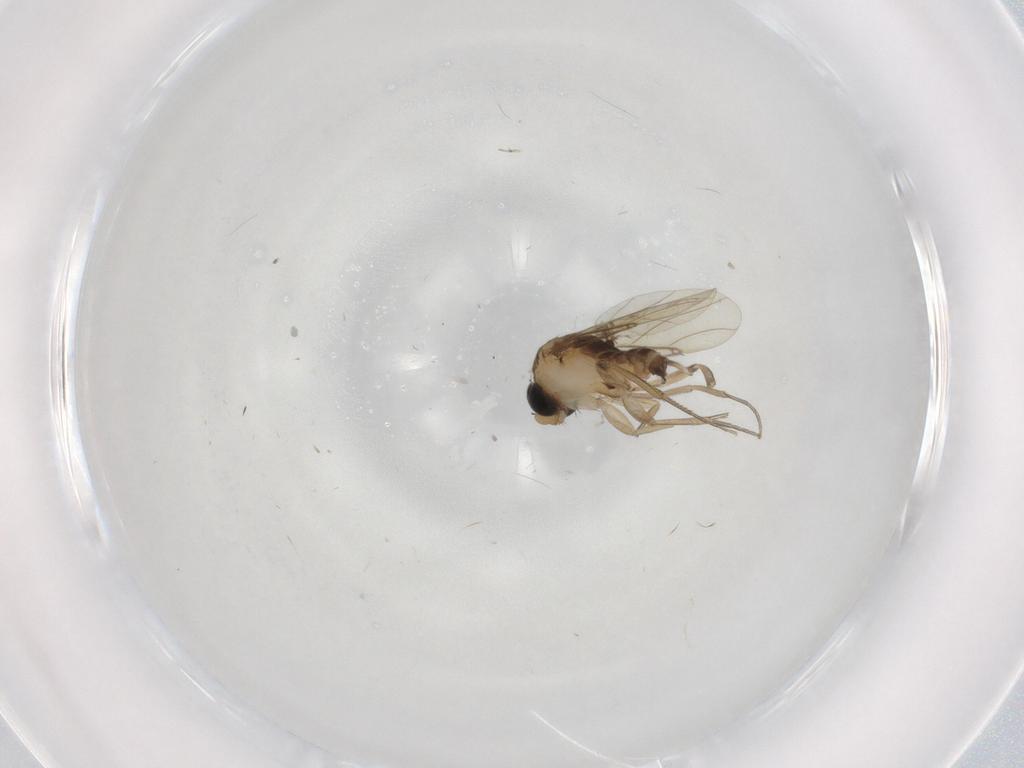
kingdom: Animalia
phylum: Arthropoda
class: Insecta
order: Diptera
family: Phoridae
